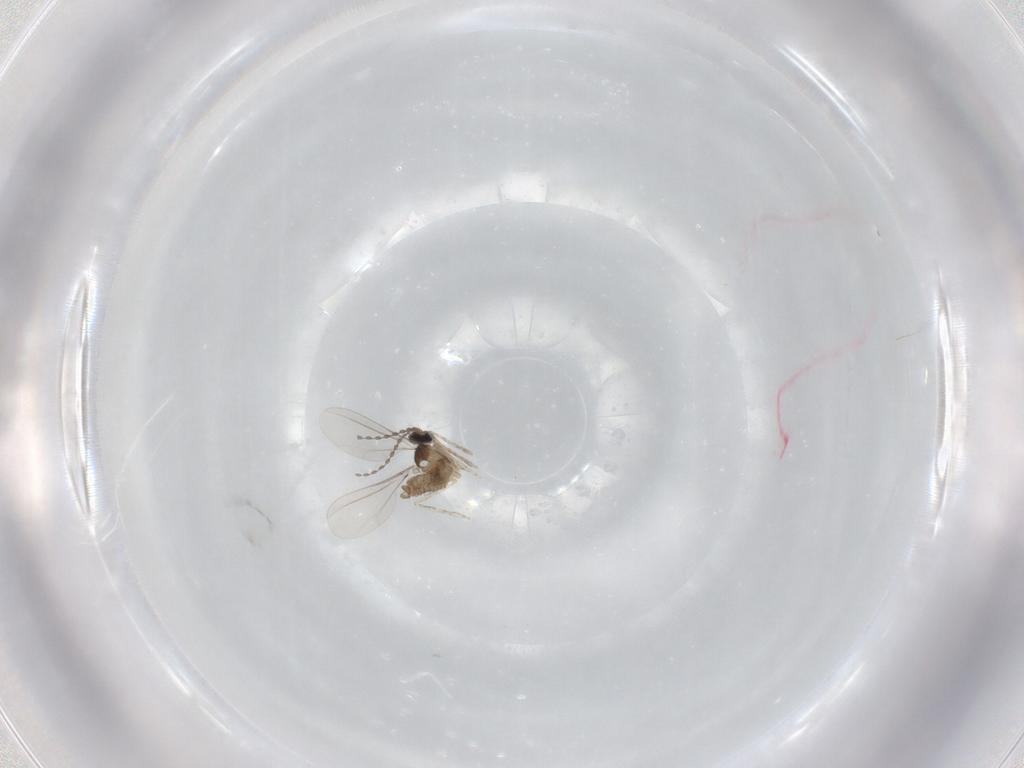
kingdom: Animalia
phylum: Arthropoda
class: Insecta
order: Diptera
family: Cecidomyiidae
